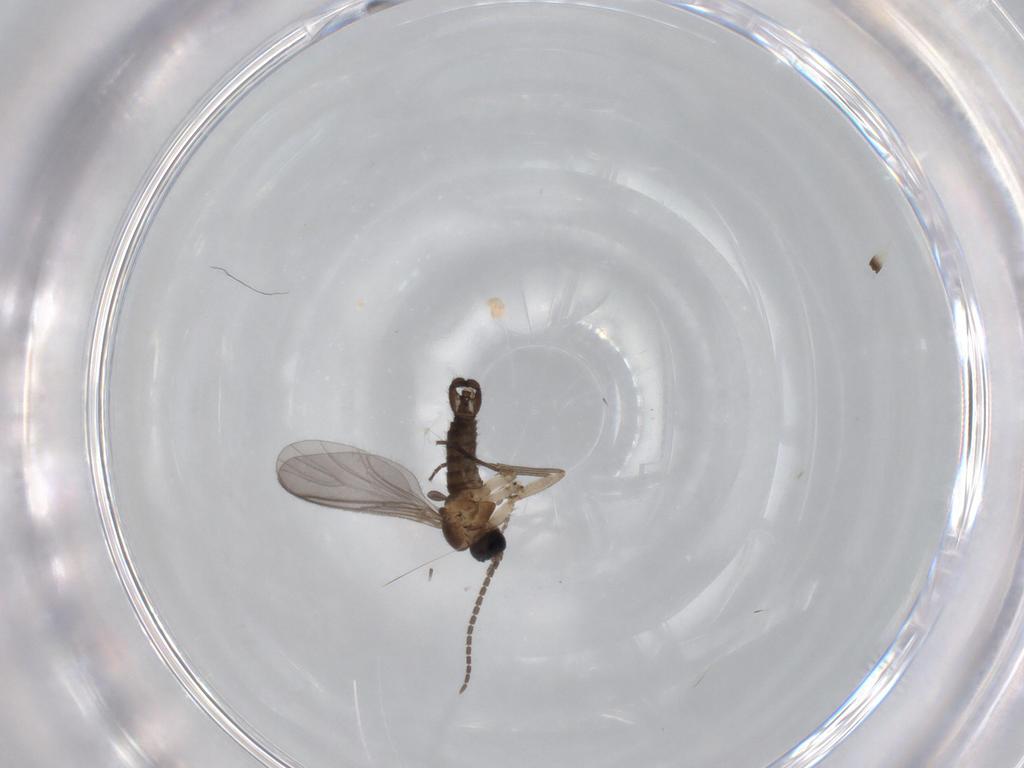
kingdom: Animalia
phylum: Arthropoda
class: Insecta
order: Diptera
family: Sciaridae
